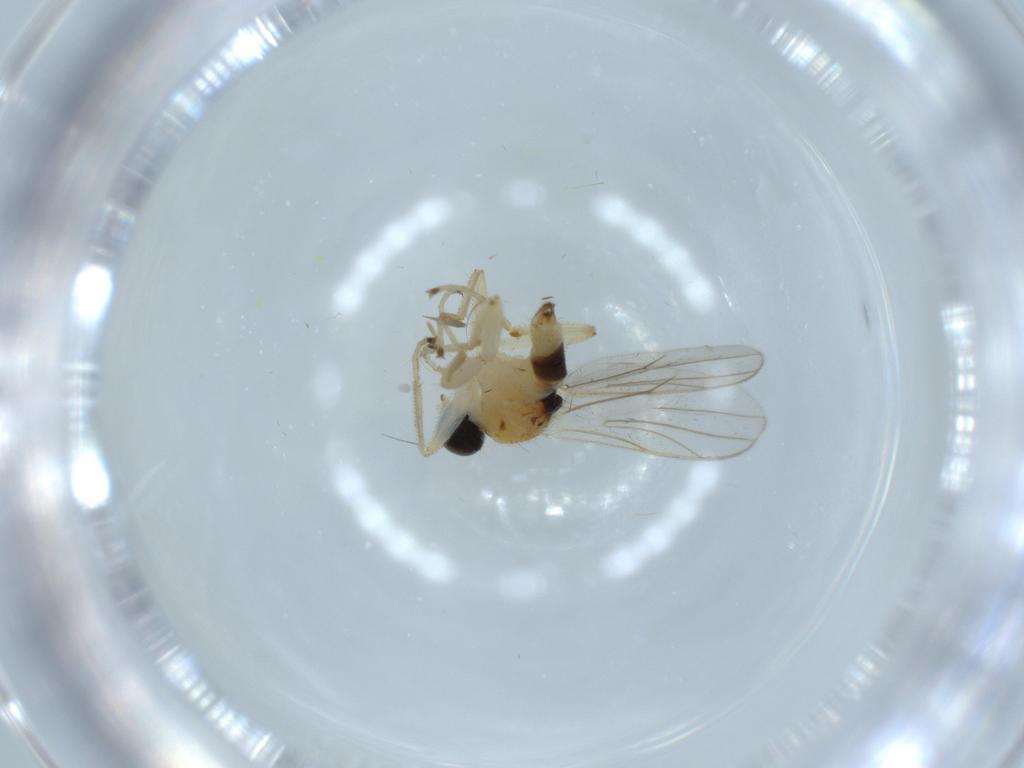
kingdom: Animalia
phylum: Arthropoda
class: Insecta
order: Diptera
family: Hybotidae
